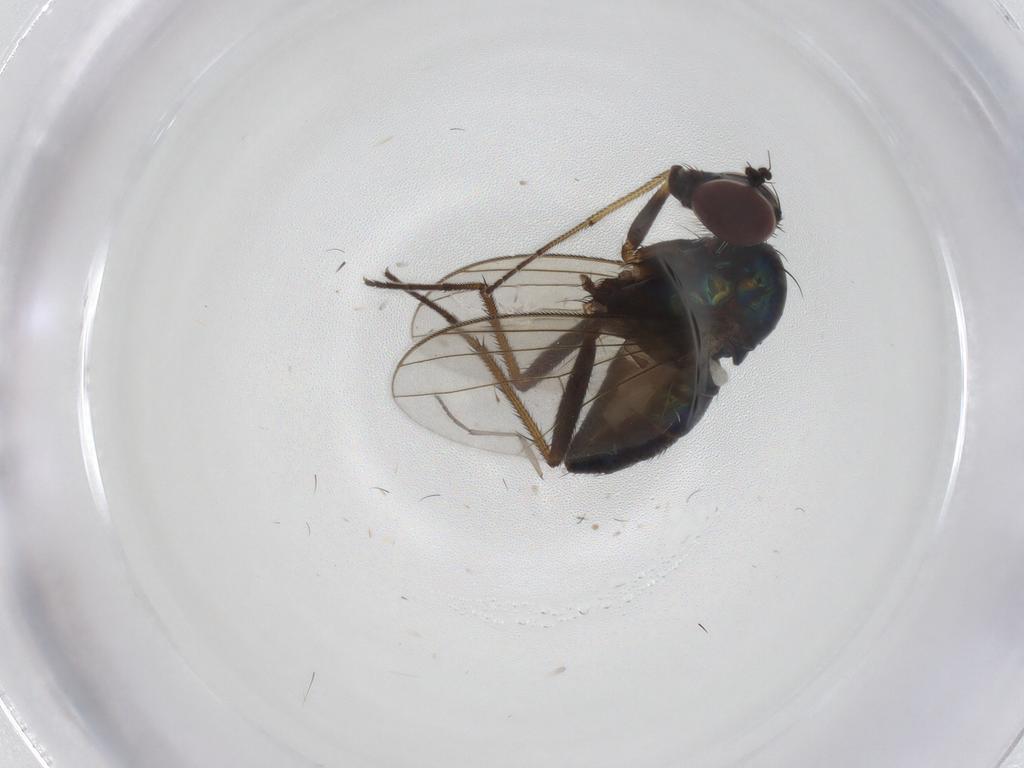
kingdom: Animalia
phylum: Arthropoda
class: Insecta
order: Diptera
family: Dolichopodidae
